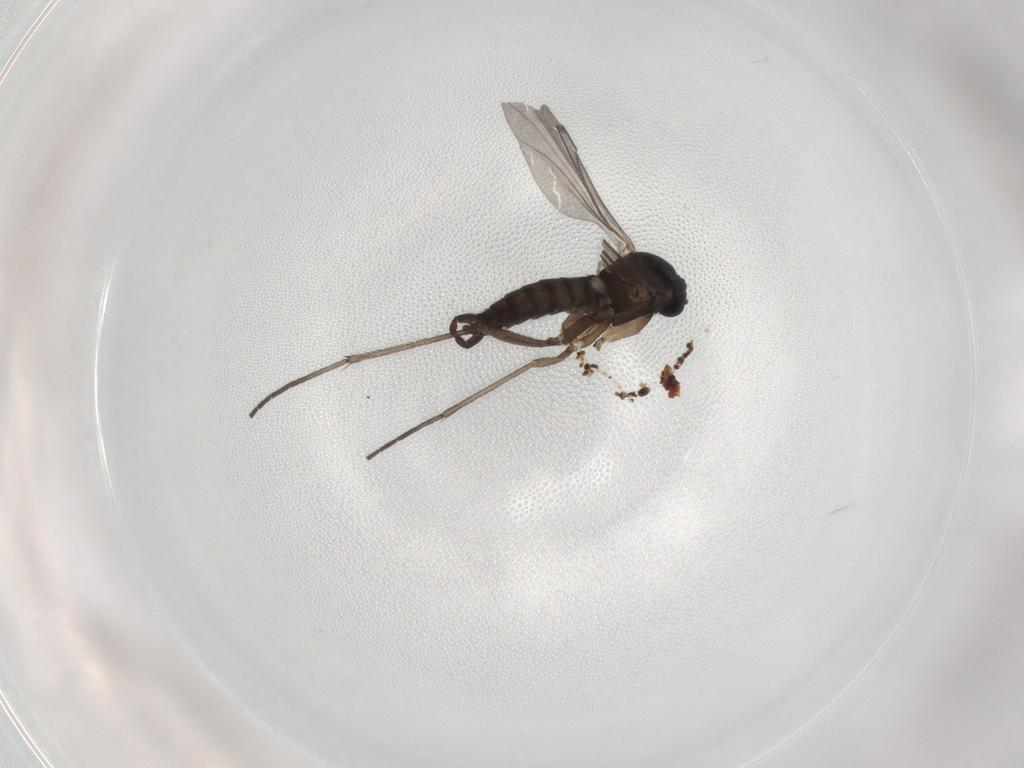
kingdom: Animalia
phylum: Arthropoda
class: Insecta
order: Diptera
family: Sciaridae
